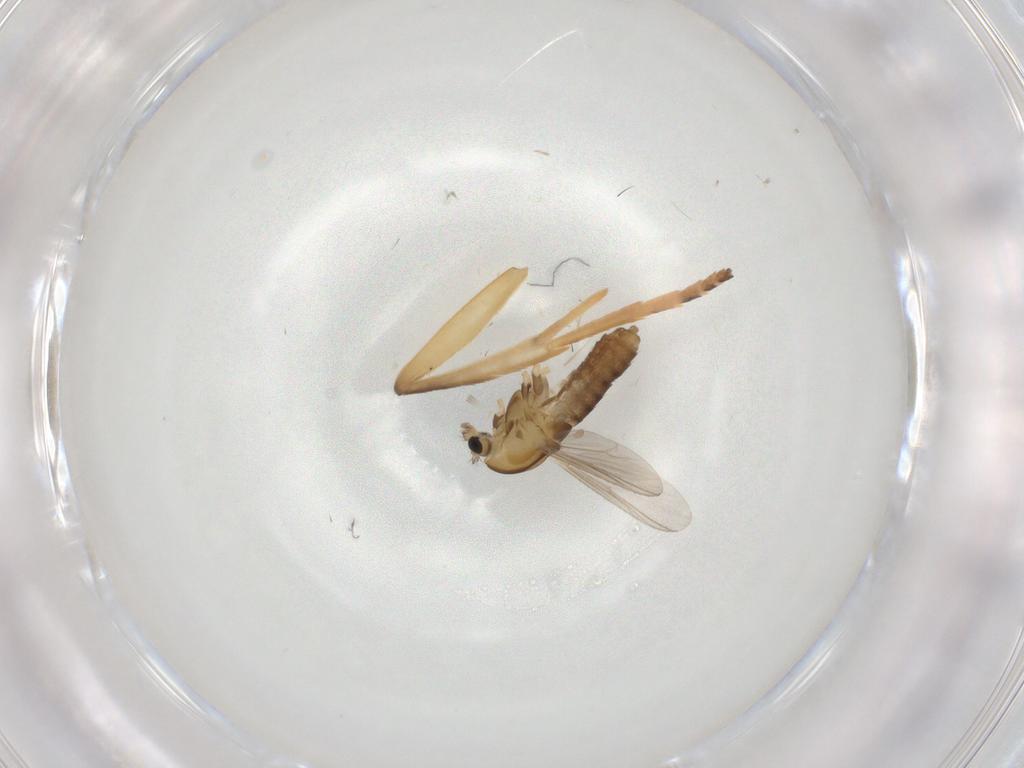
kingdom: Animalia
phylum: Arthropoda
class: Insecta
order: Diptera
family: Chironomidae
